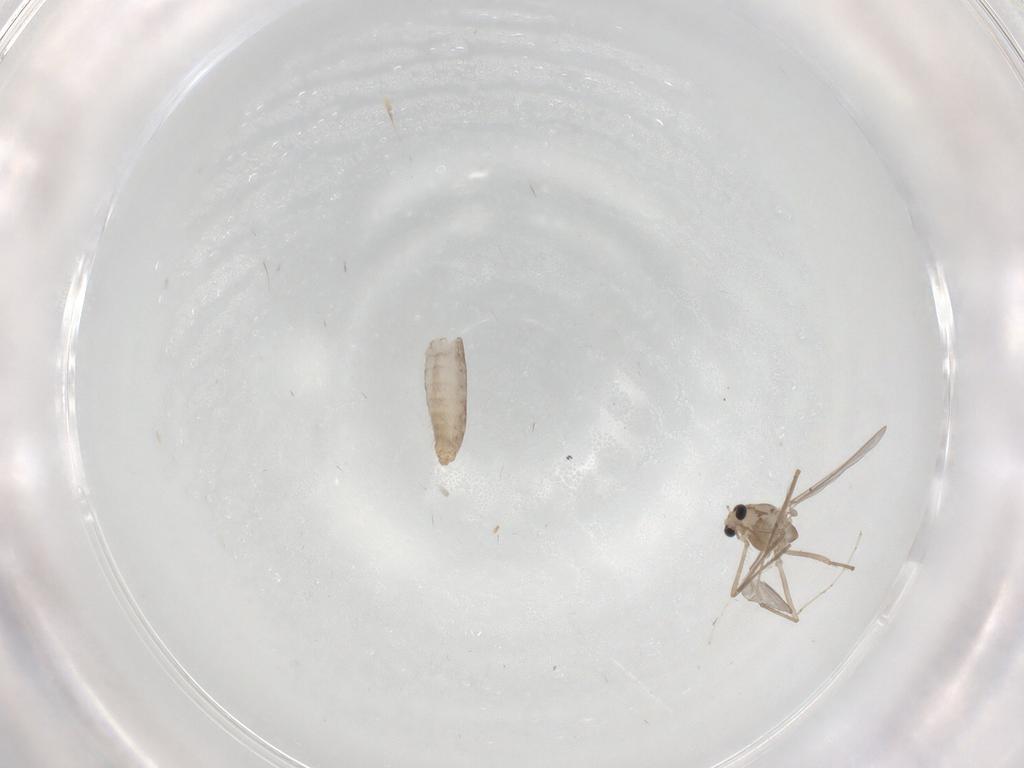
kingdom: Animalia
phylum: Arthropoda
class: Insecta
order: Diptera
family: Chironomidae
